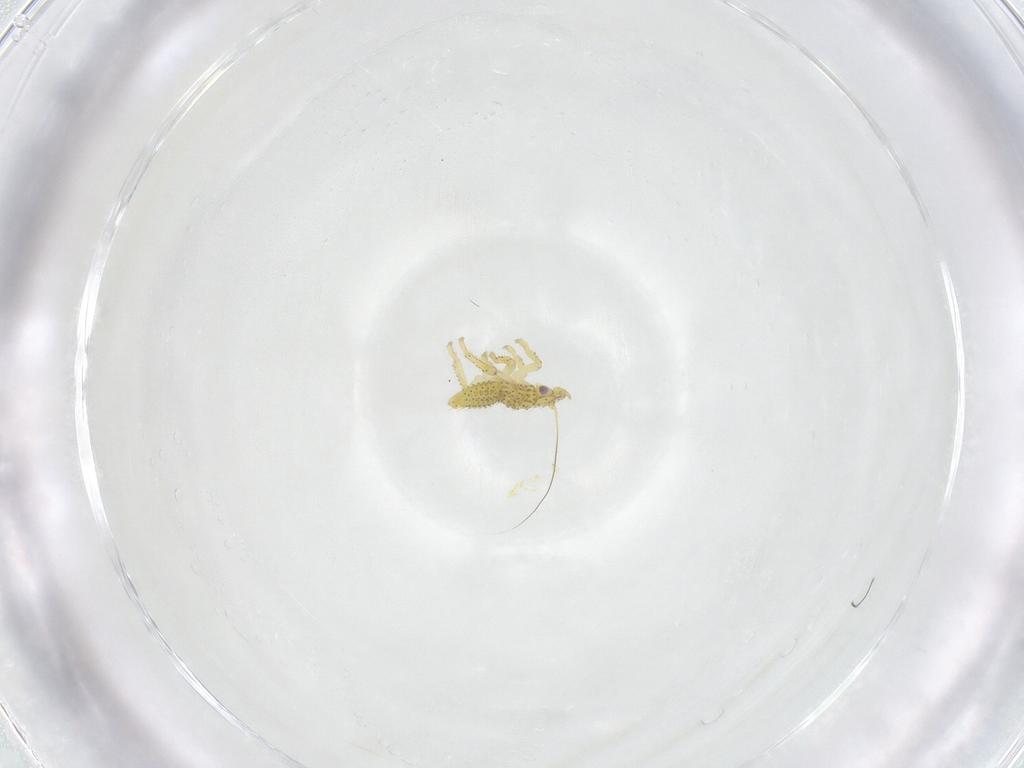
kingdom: Animalia
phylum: Arthropoda
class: Insecta
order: Hemiptera
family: Cicadellidae
